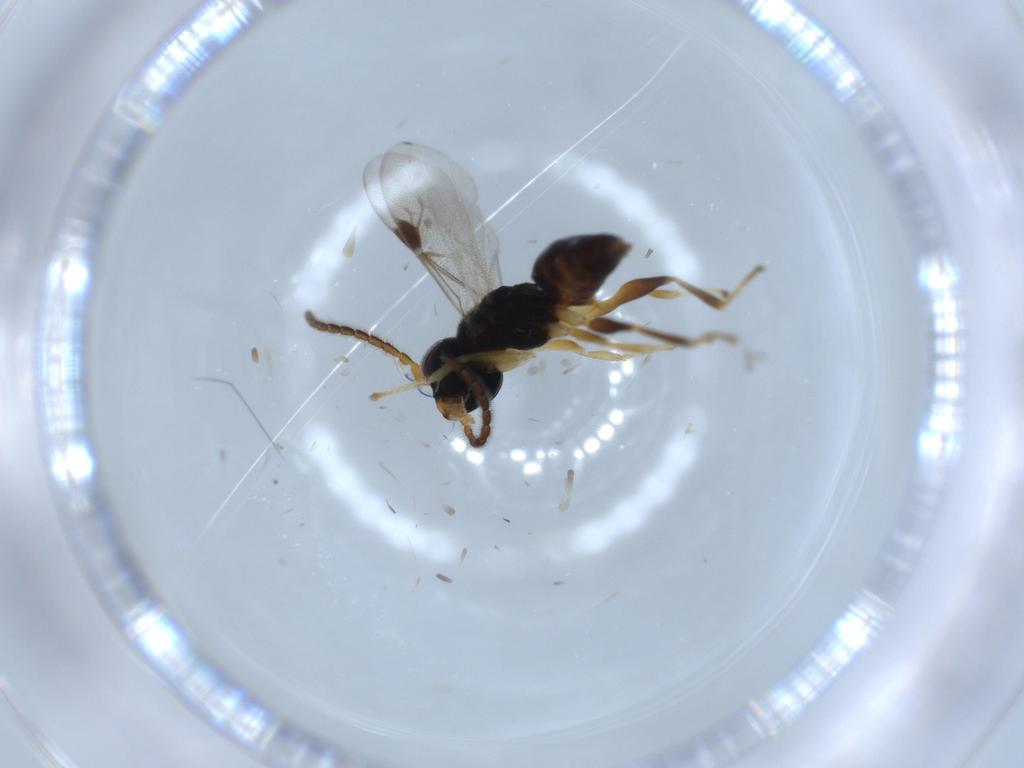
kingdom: Animalia
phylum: Arthropoda
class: Insecta
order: Hymenoptera
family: Dryinidae
